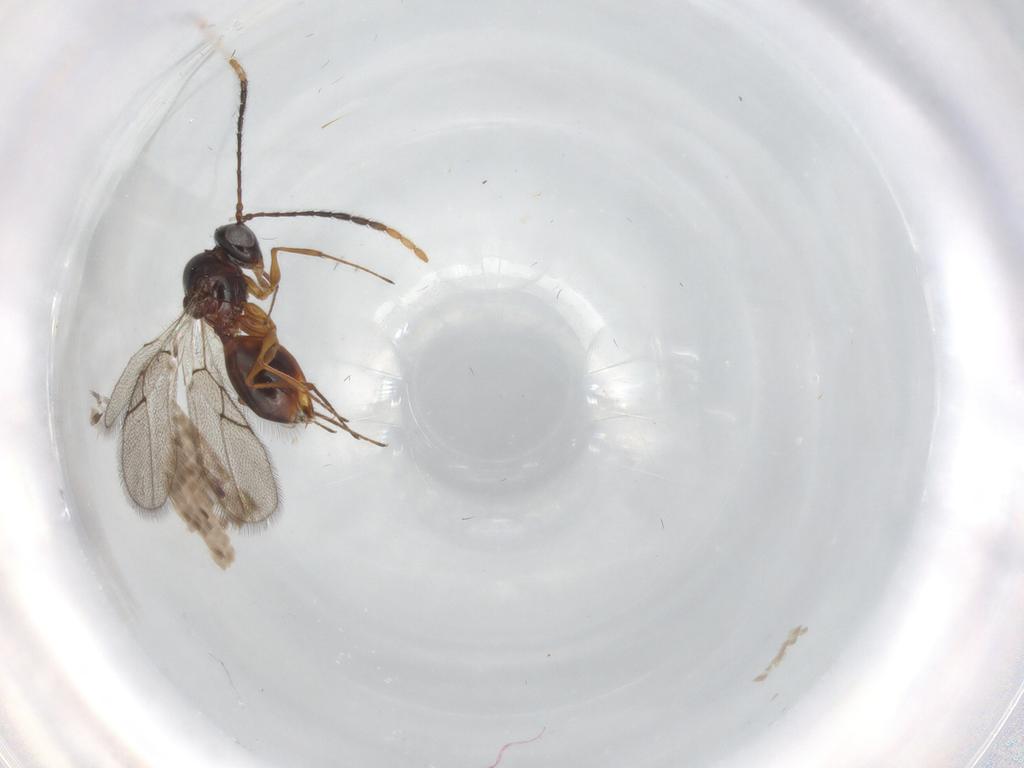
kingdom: Animalia
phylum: Arthropoda
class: Insecta
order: Hymenoptera
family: Figitidae
